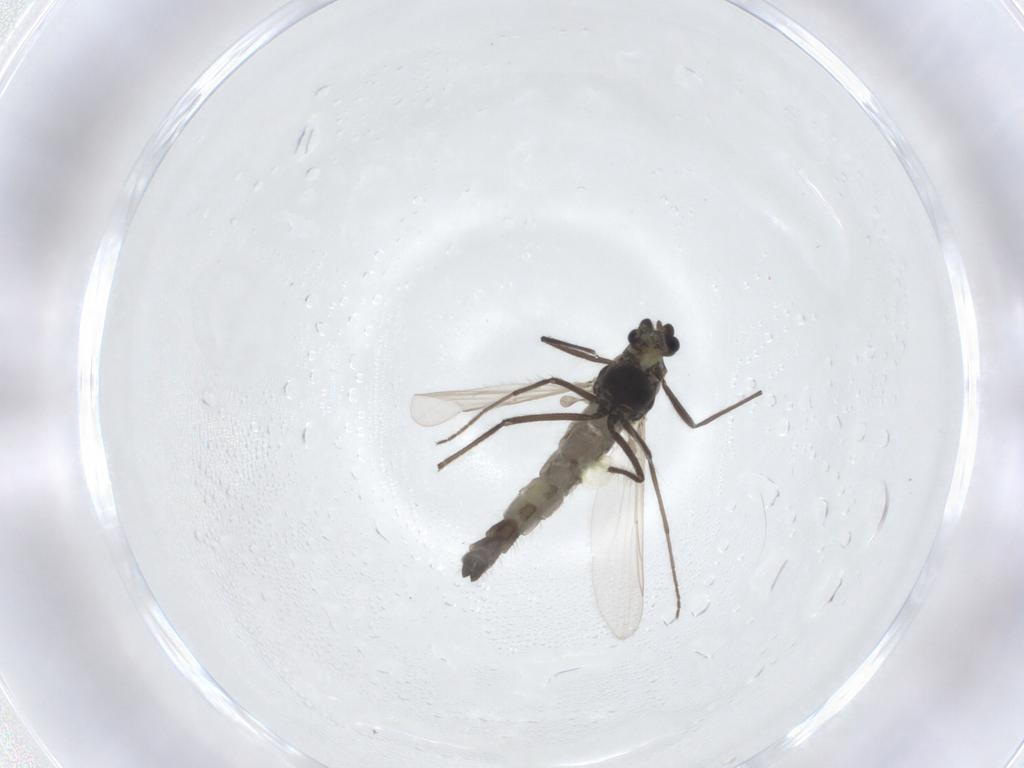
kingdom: Animalia
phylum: Arthropoda
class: Insecta
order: Diptera
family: Chironomidae
